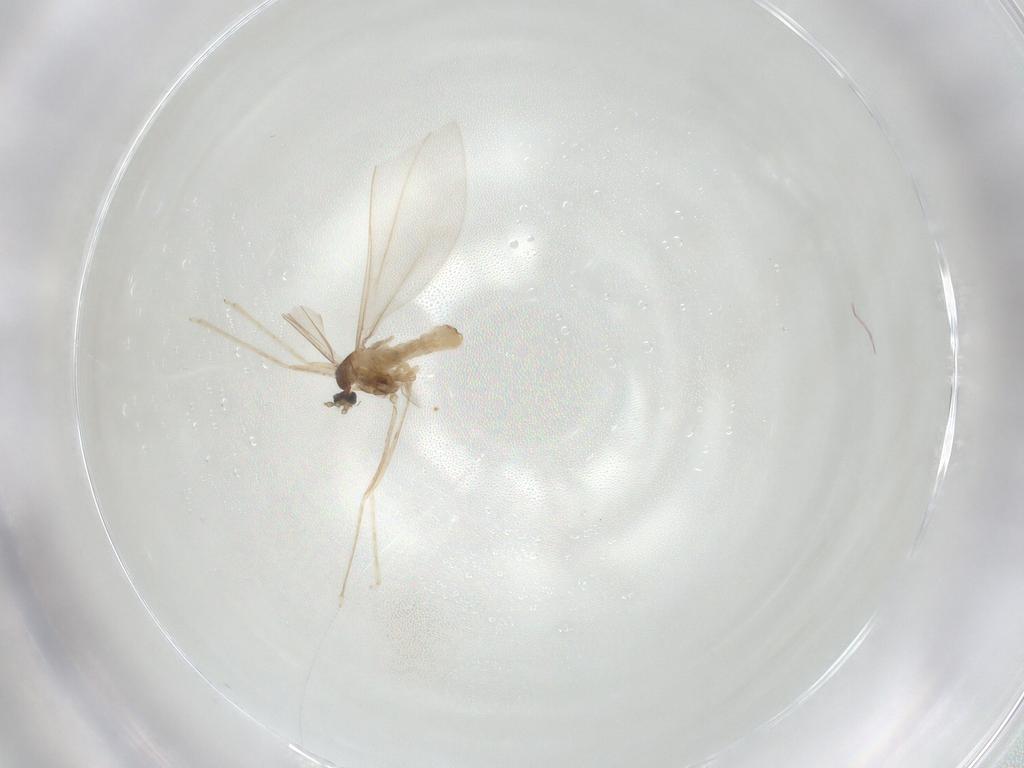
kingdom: Animalia
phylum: Arthropoda
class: Insecta
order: Diptera
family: Cecidomyiidae
